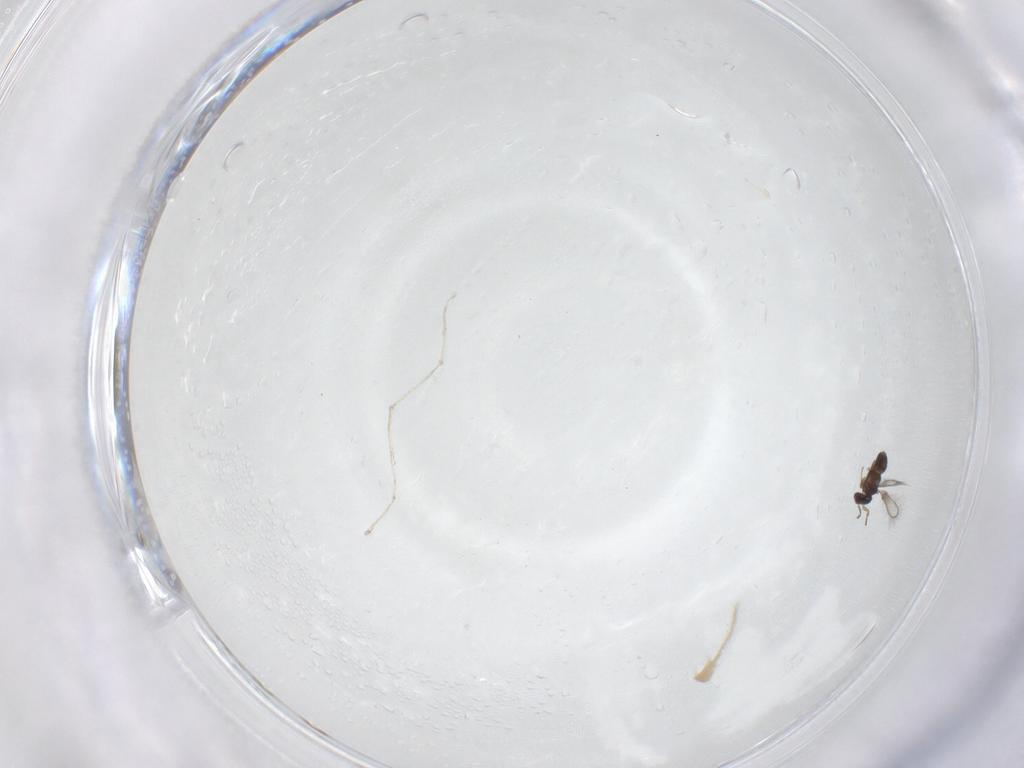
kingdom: Animalia
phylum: Arthropoda
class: Insecta
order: Hymenoptera
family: Mymaridae
